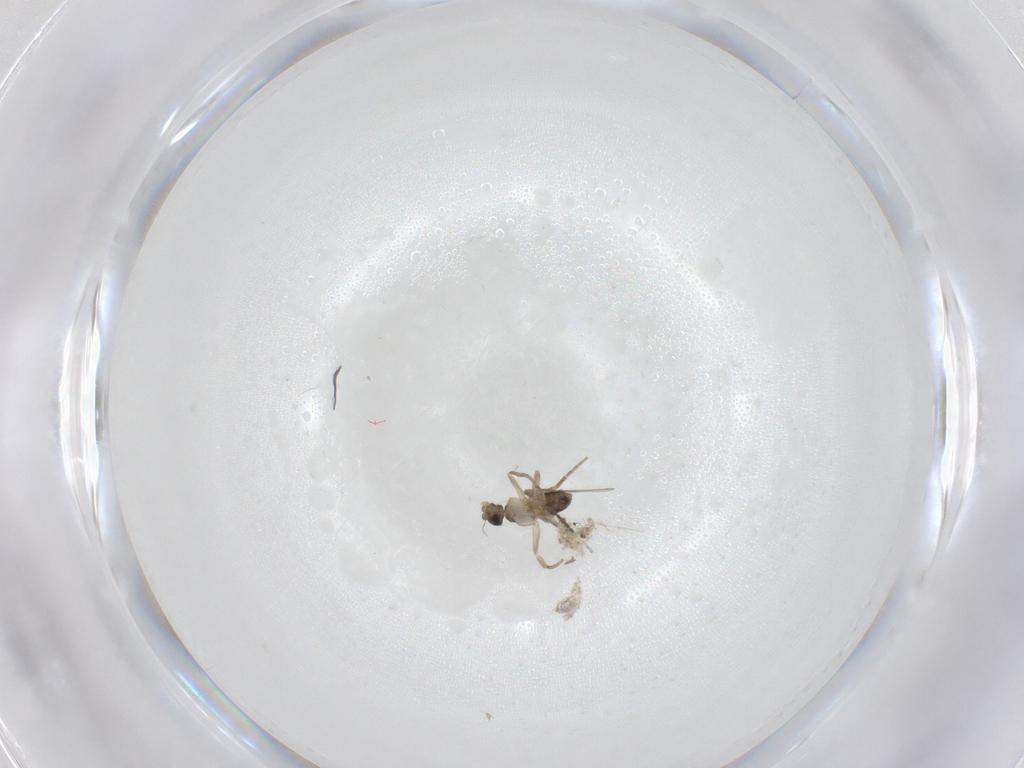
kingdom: Animalia
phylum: Arthropoda
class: Insecta
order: Diptera
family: Phoridae
